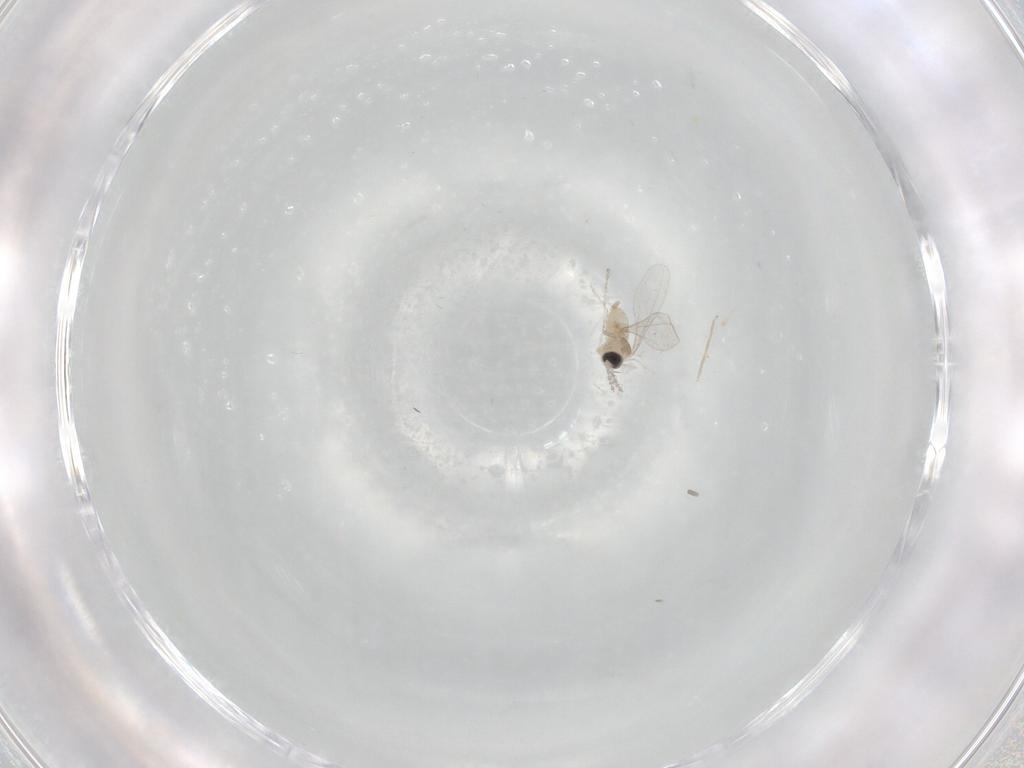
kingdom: Animalia
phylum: Arthropoda
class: Insecta
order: Diptera
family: Chironomidae
